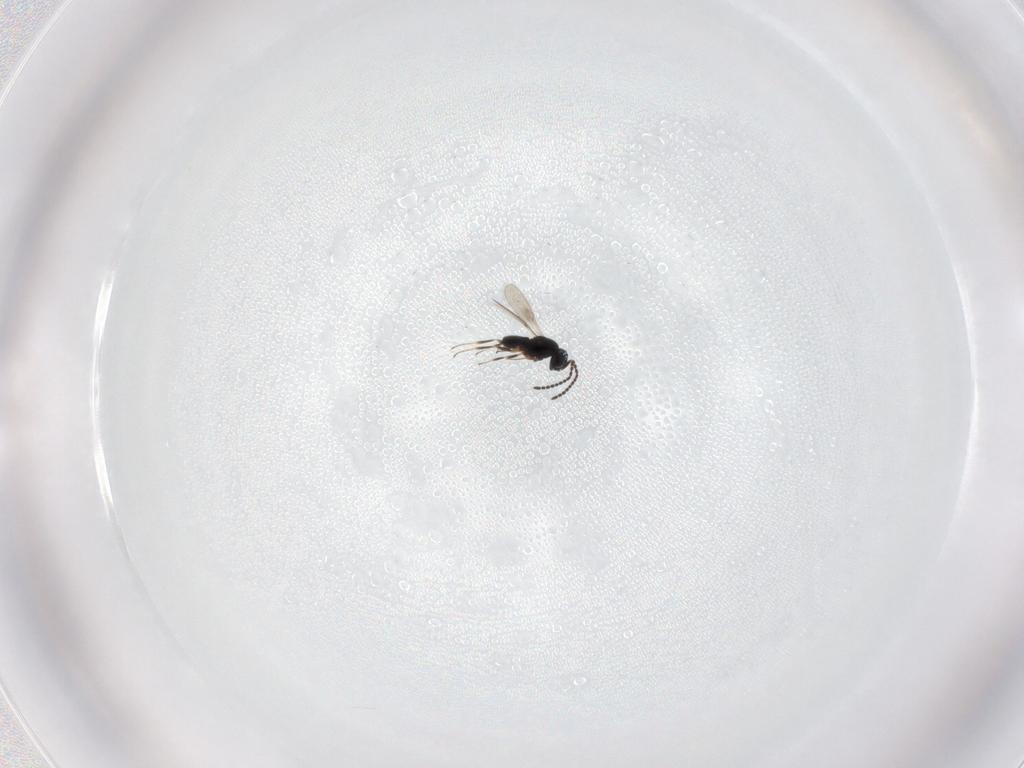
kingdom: Animalia
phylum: Arthropoda
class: Insecta
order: Hymenoptera
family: Scelionidae
